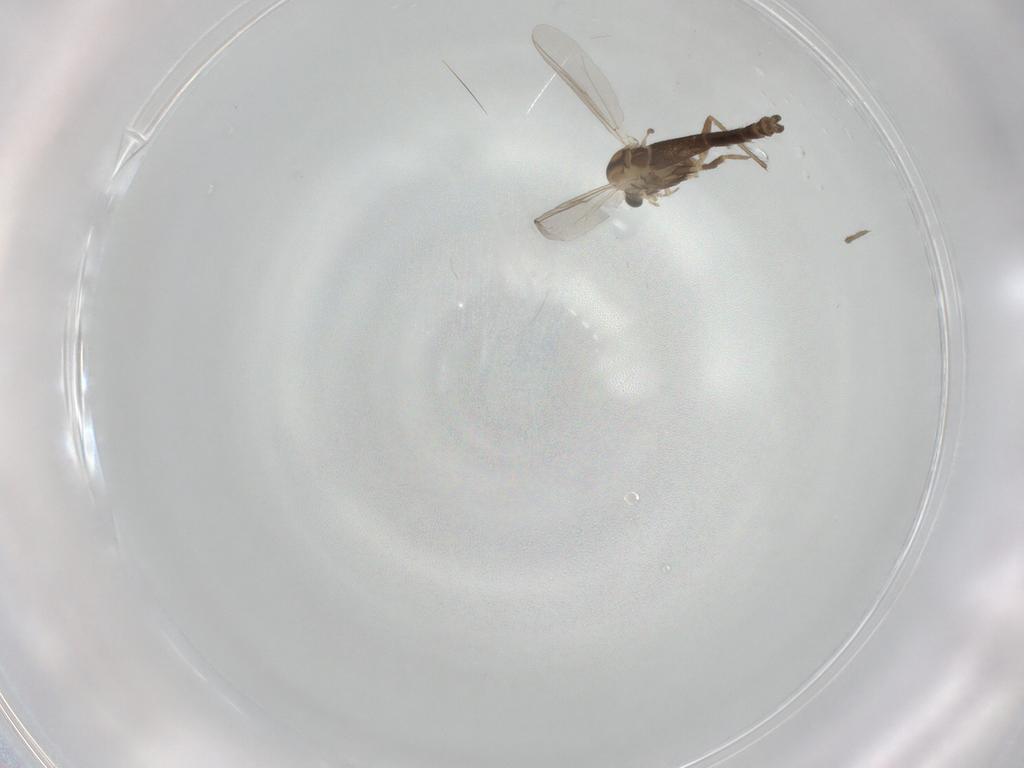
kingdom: Animalia
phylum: Arthropoda
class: Insecta
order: Diptera
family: Chironomidae
